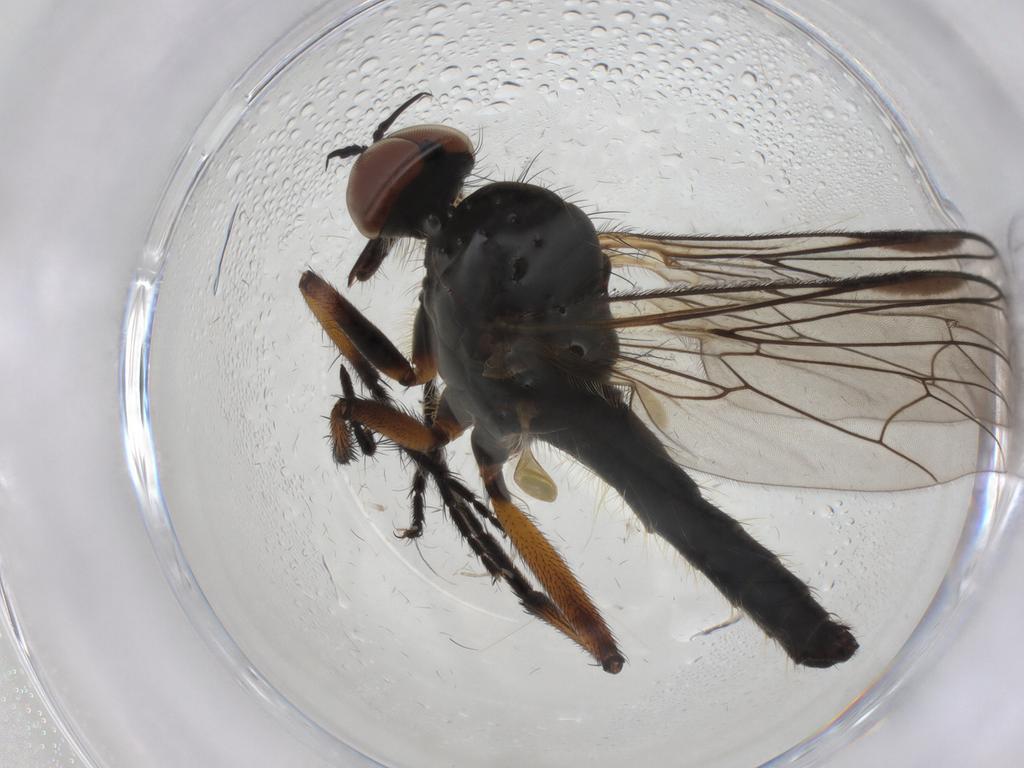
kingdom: Animalia
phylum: Arthropoda
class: Insecta
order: Diptera
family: Empididae
